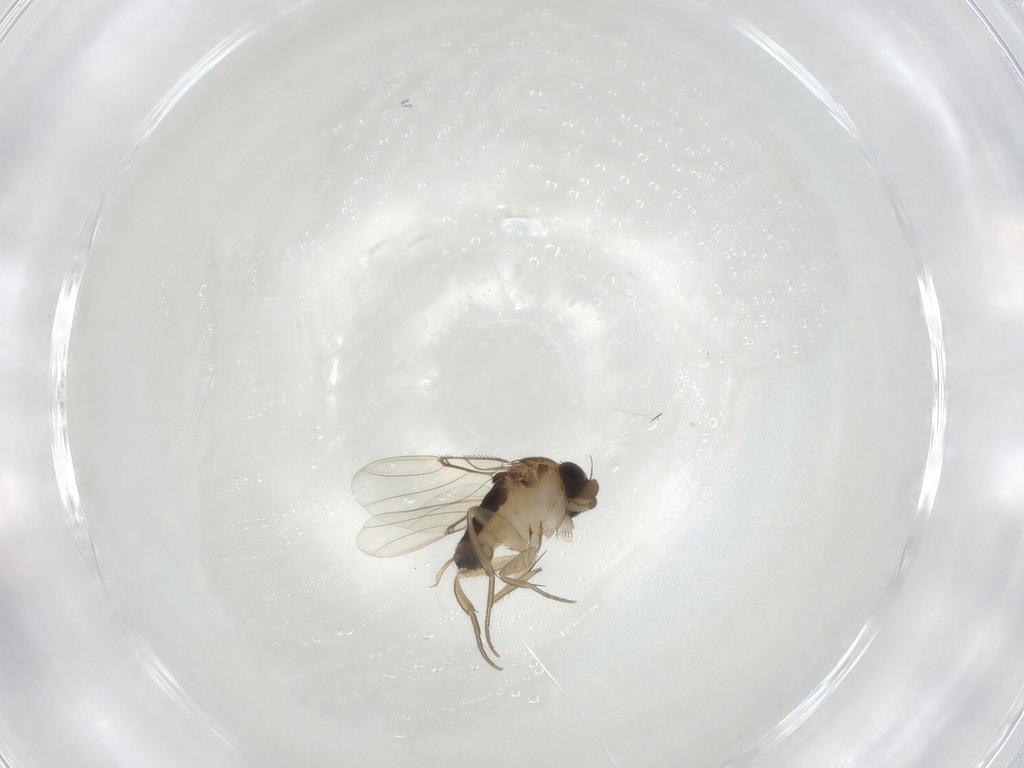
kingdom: Animalia
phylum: Arthropoda
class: Insecta
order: Diptera
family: Phoridae
